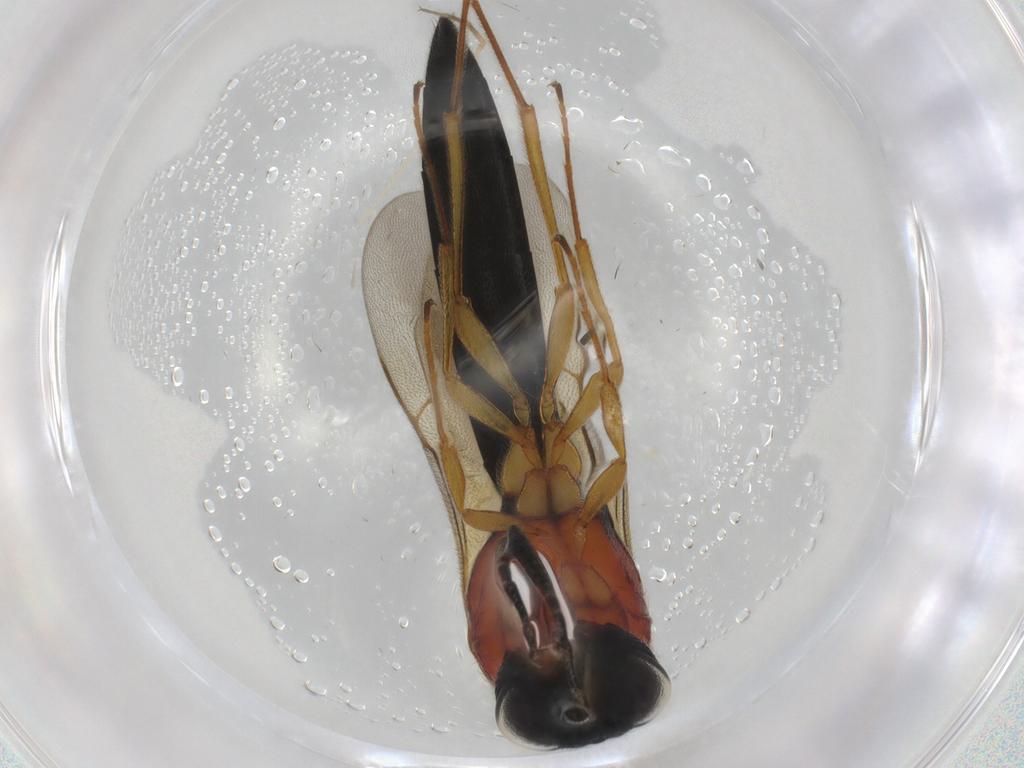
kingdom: Animalia
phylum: Arthropoda
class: Insecta
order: Hymenoptera
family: Scelionidae
